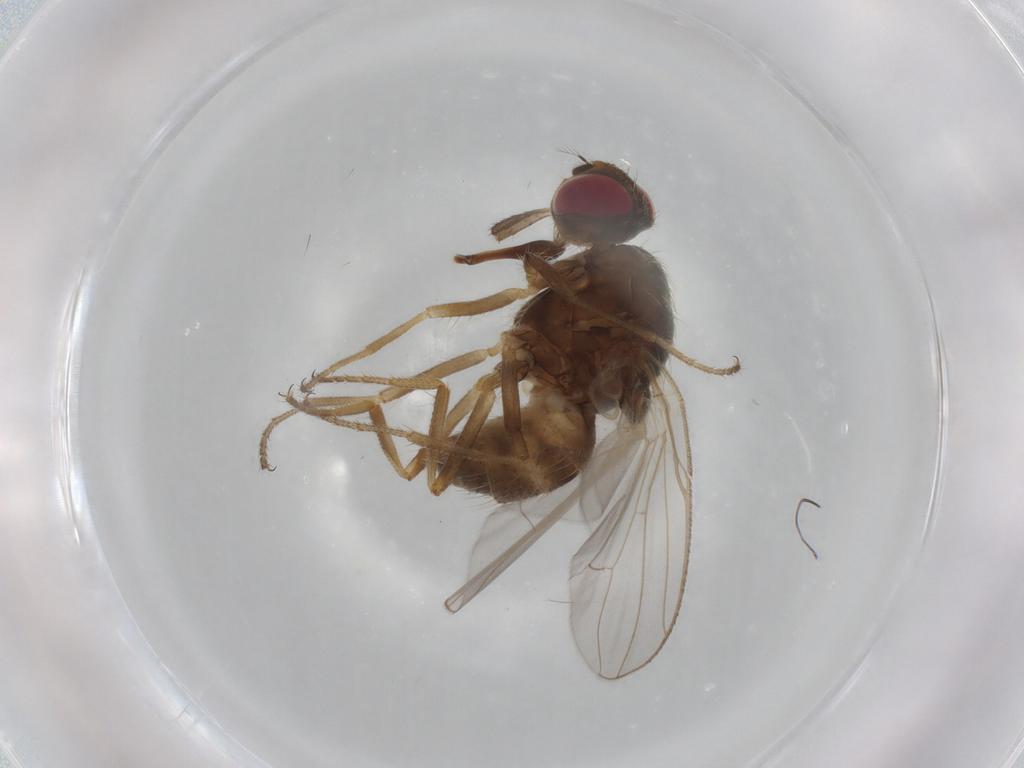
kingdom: Animalia
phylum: Arthropoda
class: Insecta
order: Diptera
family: Muscidae
